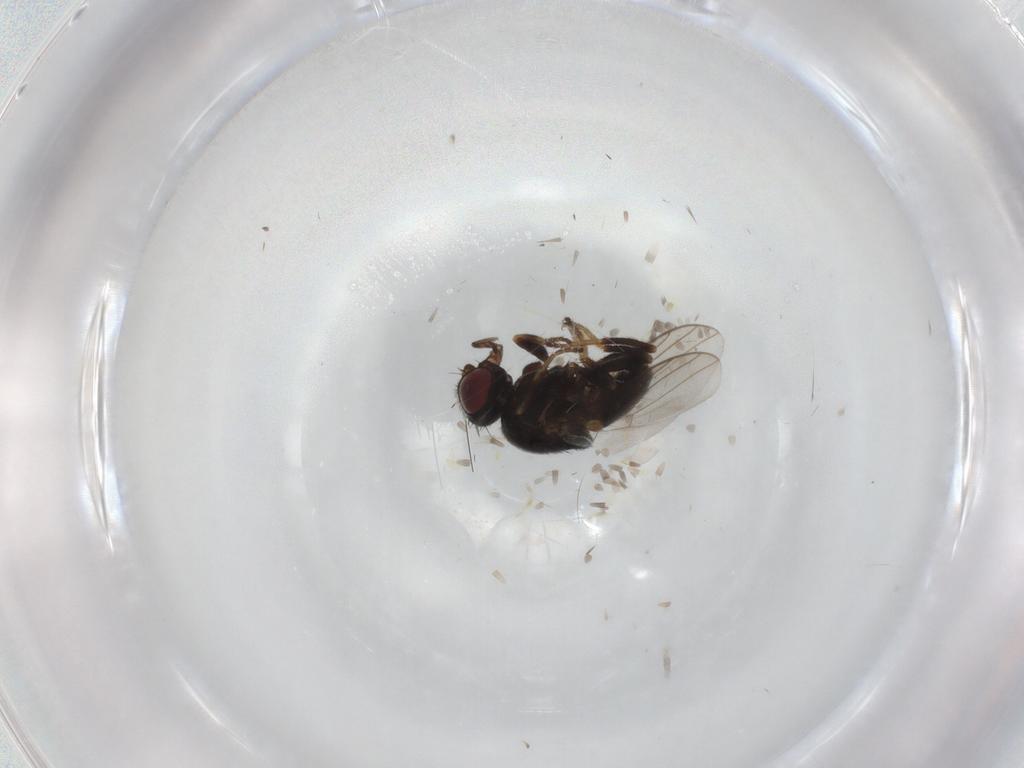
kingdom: Animalia
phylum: Arthropoda
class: Insecta
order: Diptera
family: Chloropidae
